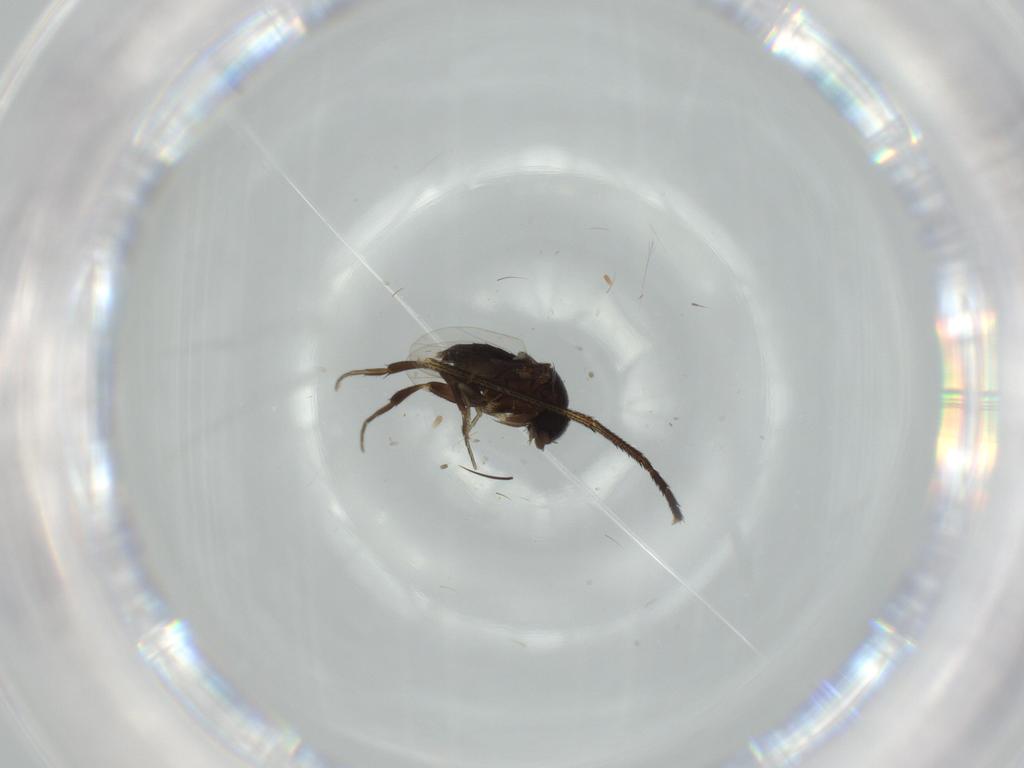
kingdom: Animalia
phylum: Arthropoda
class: Insecta
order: Diptera
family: Phoridae
